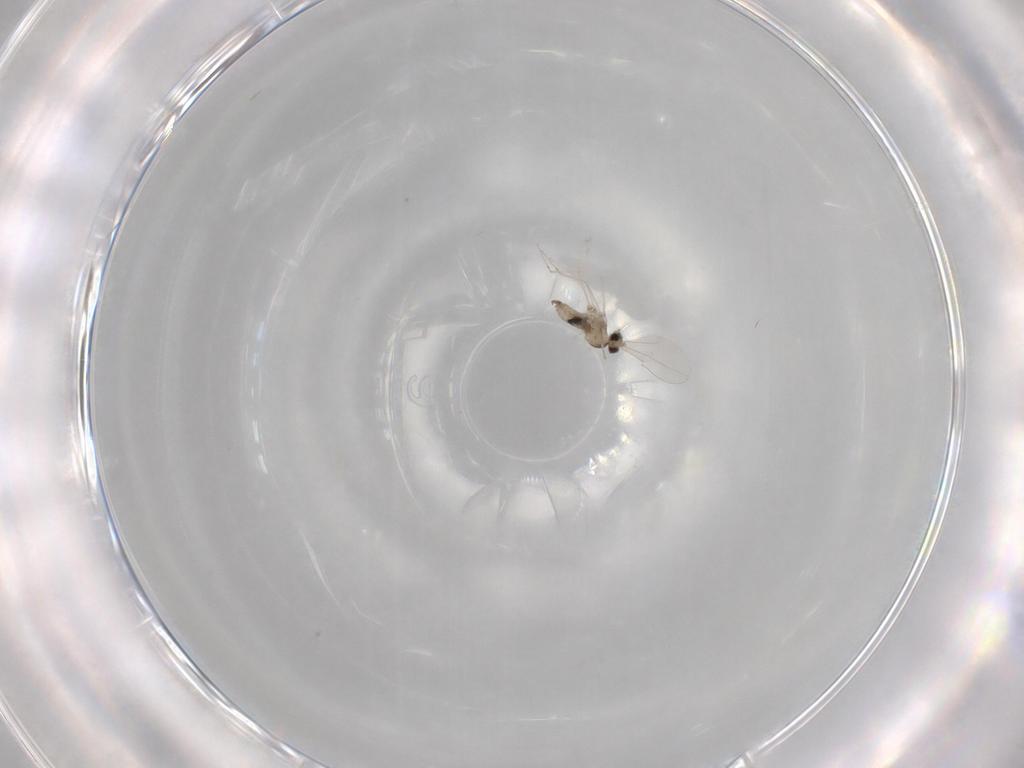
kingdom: Animalia
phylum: Arthropoda
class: Insecta
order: Diptera
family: Cecidomyiidae
